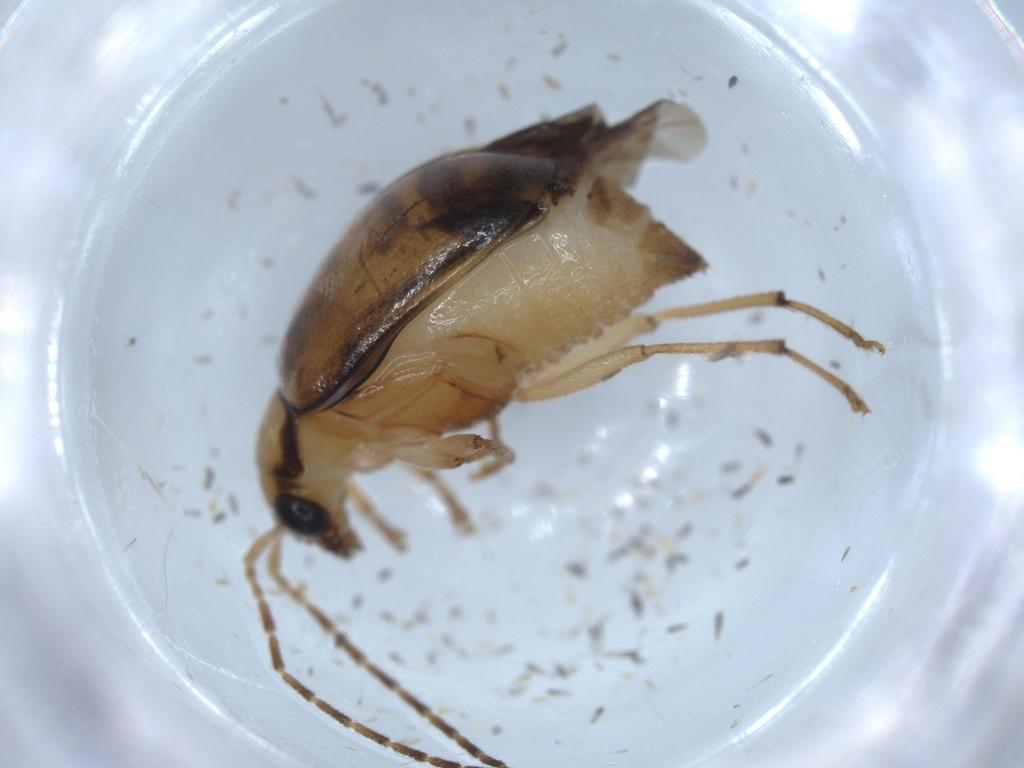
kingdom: Animalia
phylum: Arthropoda
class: Insecta
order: Coleoptera
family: Chrysomelidae
